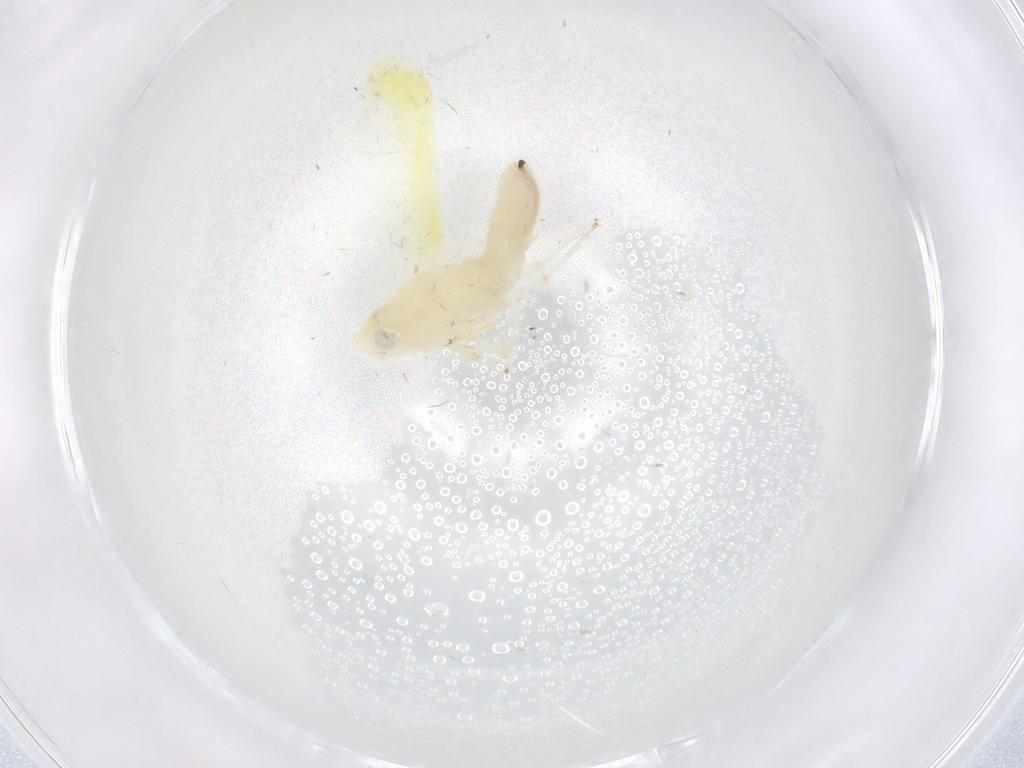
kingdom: Animalia
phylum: Arthropoda
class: Insecta
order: Hemiptera
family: Cicadellidae
